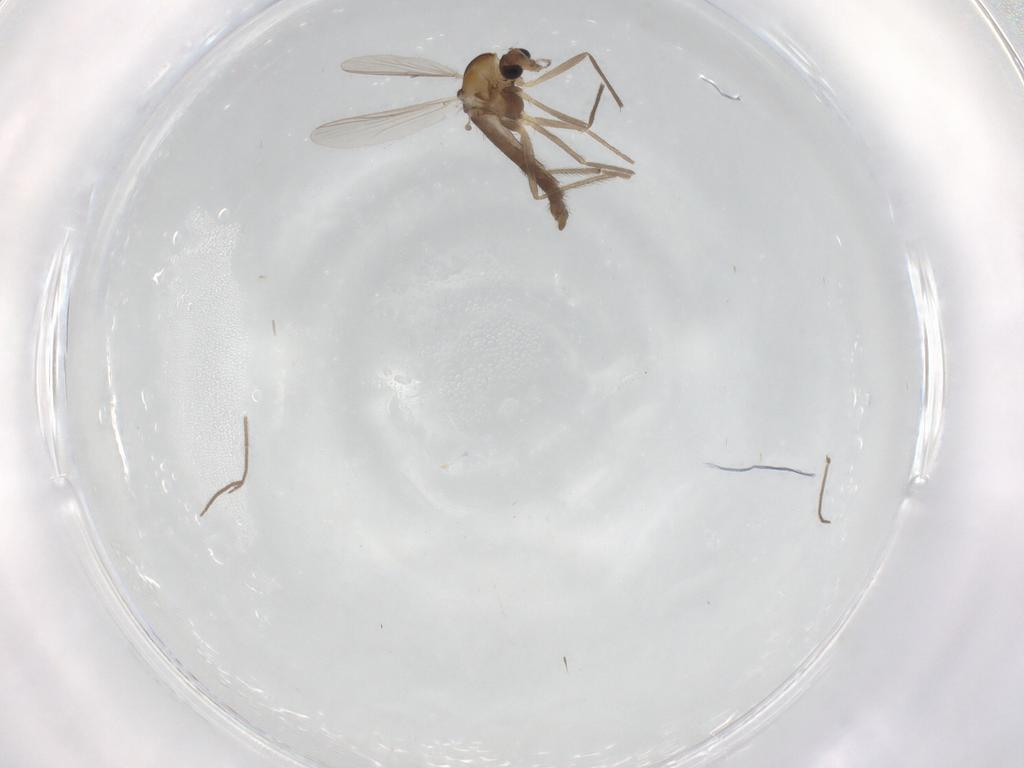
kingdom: Animalia
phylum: Arthropoda
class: Insecta
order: Diptera
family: Chironomidae
